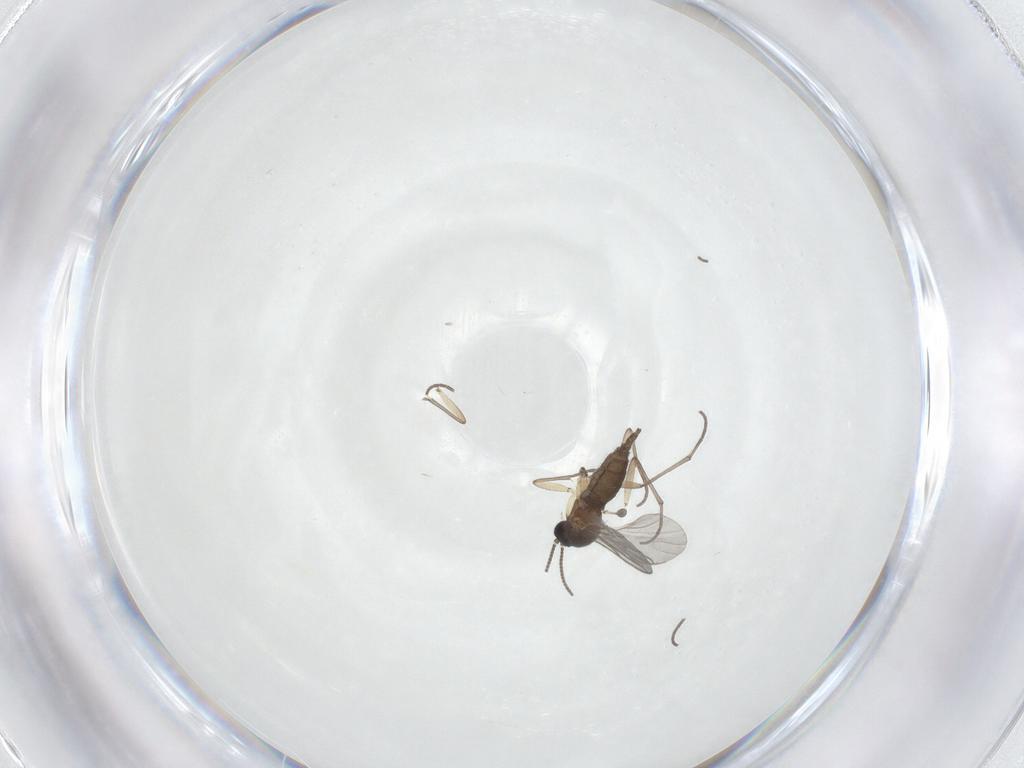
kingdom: Animalia
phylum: Arthropoda
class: Insecta
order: Diptera
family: Sciaridae
